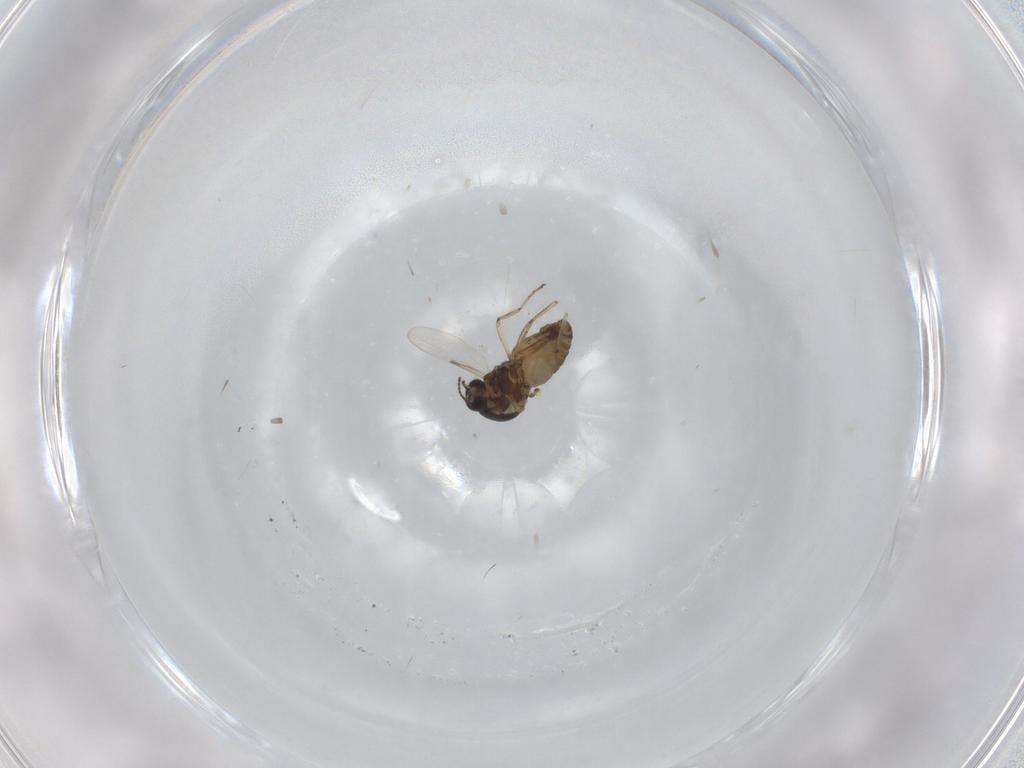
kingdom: Animalia
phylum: Arthropoda
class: Insecta
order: Diptera
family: Ceratopogonidae
